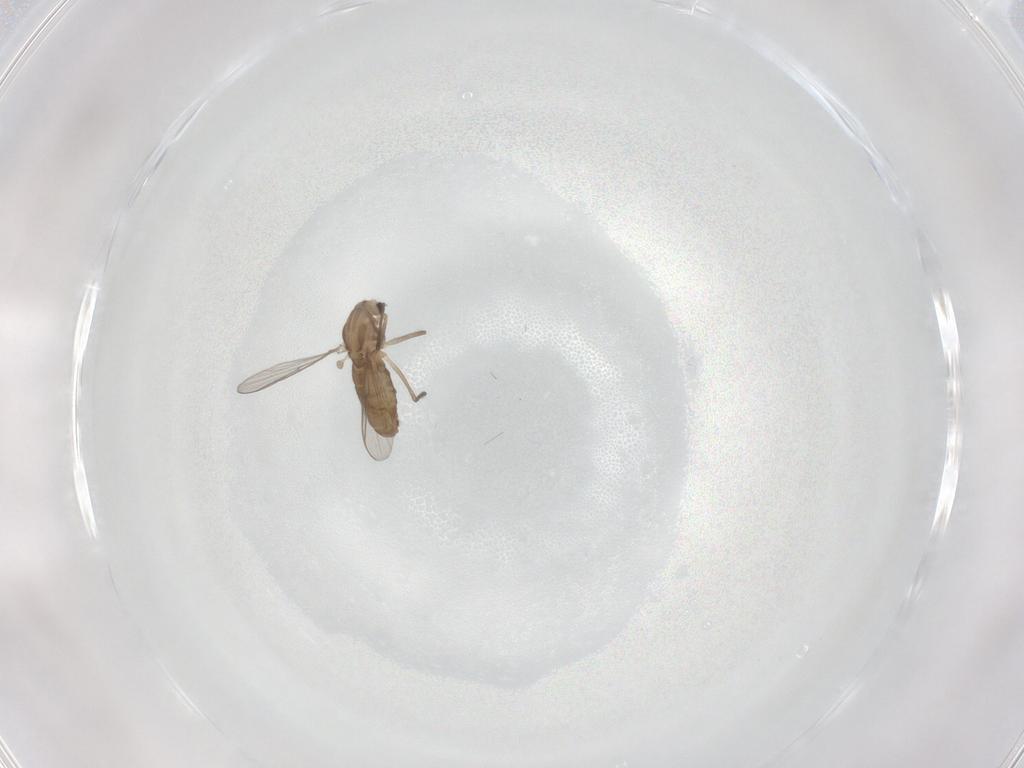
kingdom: Animalia
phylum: Arthropoda
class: Insecta
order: Diptera
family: Chironomidae
